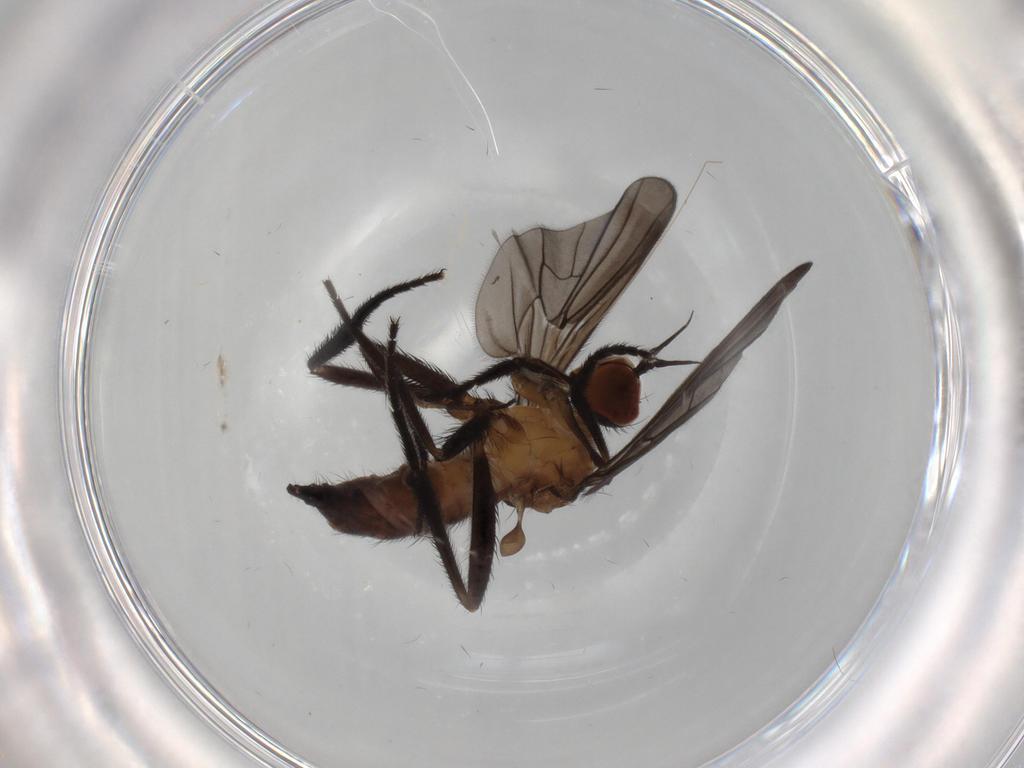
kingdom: Animalia
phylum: Arthropoda
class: Insecta
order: Diptera
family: Empididae
